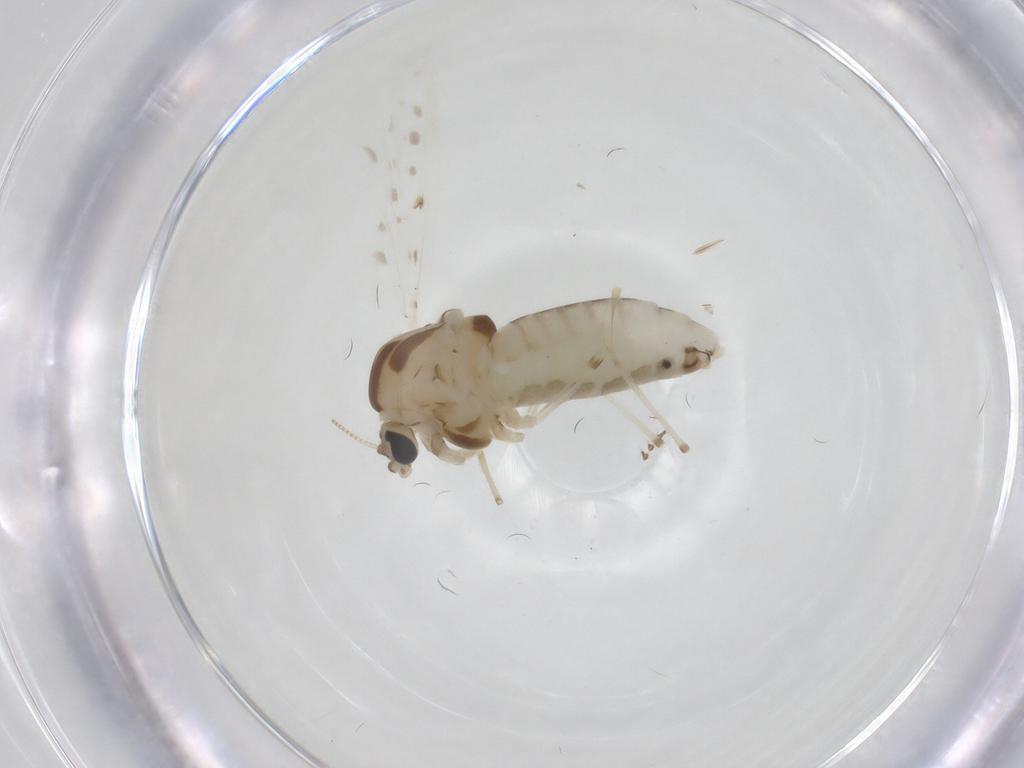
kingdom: Animalia
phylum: Arthropoda
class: Insecta
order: Diptera
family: Chironomidae
